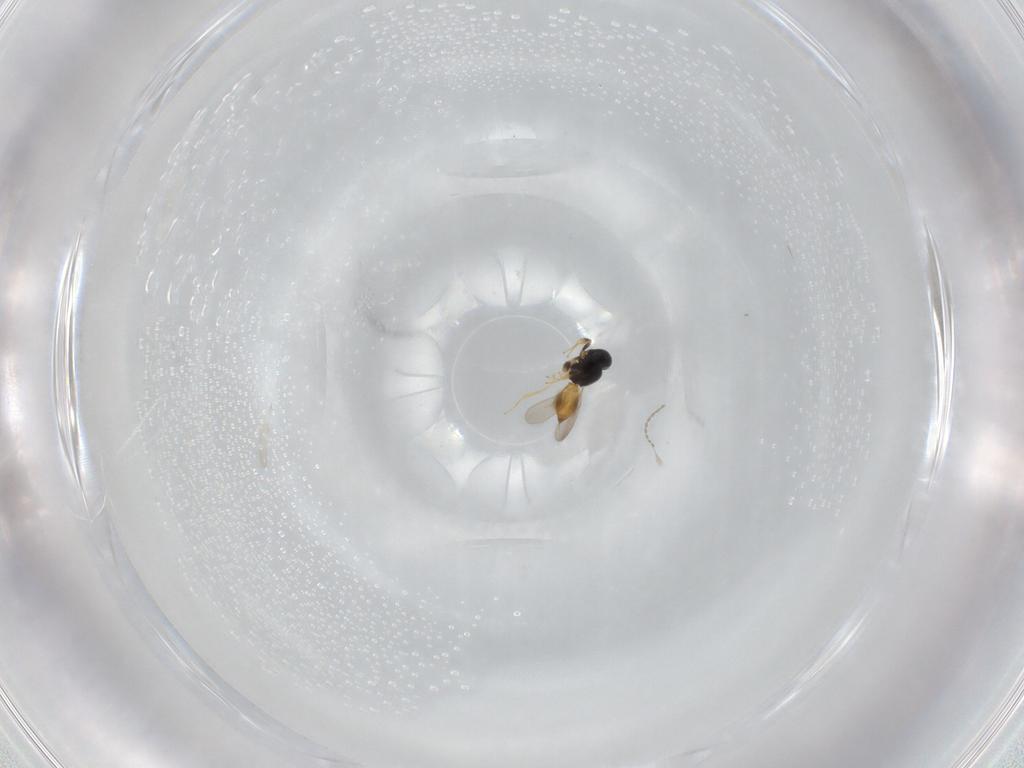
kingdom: Animalia
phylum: Arthropoda
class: Insecta
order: Hymenoptera
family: Scelionidae
